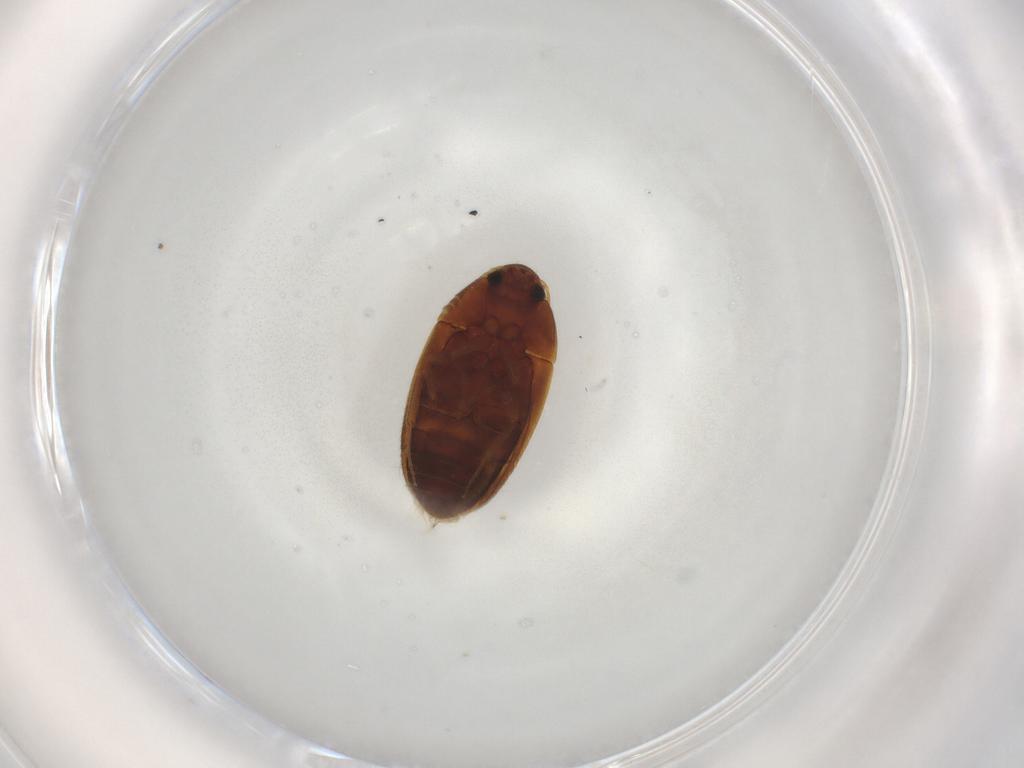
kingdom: Animalia
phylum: Arthropoda
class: Insecta
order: Coleoptera
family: Mycetophagidae
